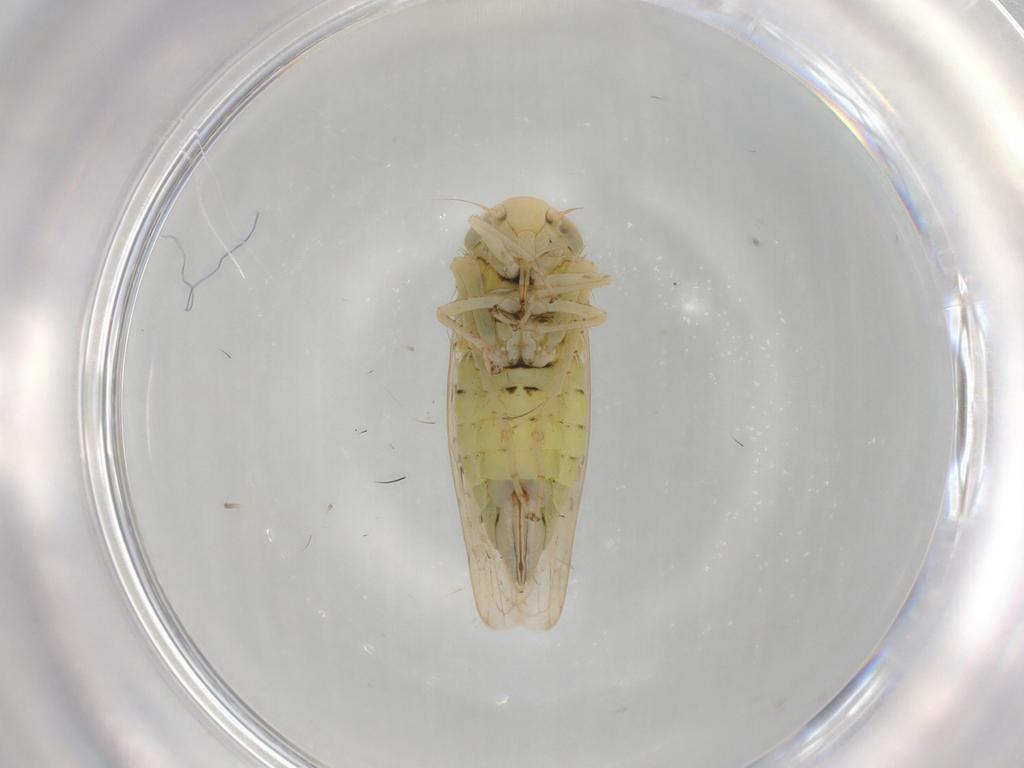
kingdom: Animalia
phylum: Arthropoda
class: Insecta
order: Hemiptera
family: Cicadellidae
